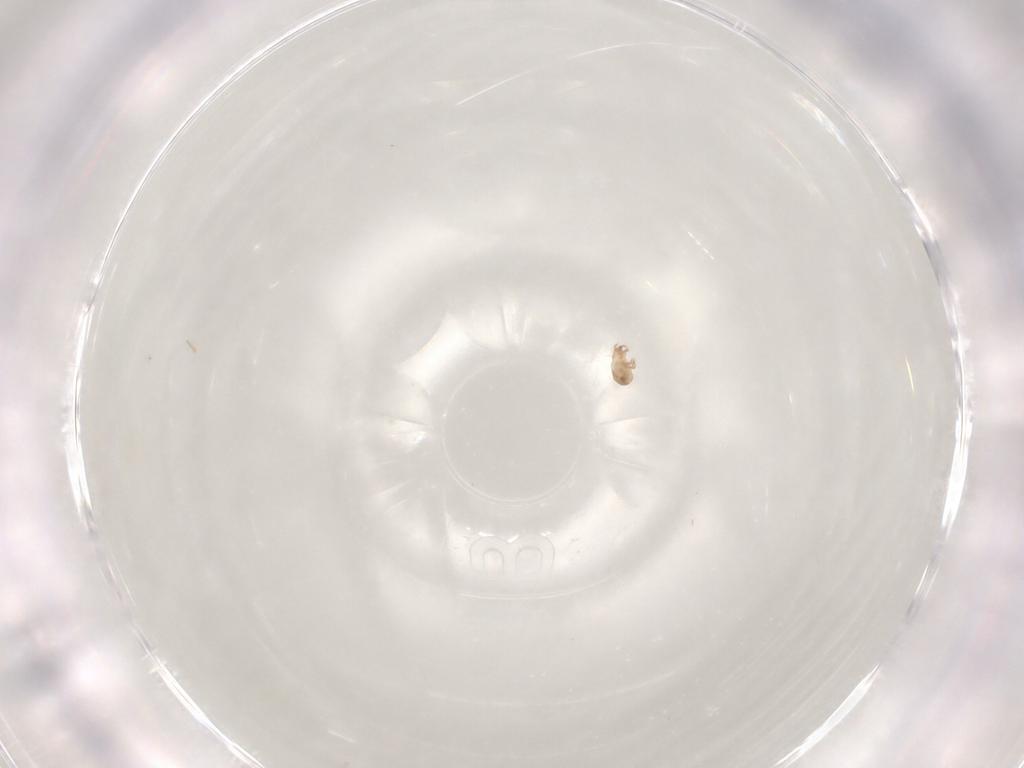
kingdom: Animalia
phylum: Arthropoda
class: Arachnida
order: Sarcoptiformes
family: Humerobatidae
